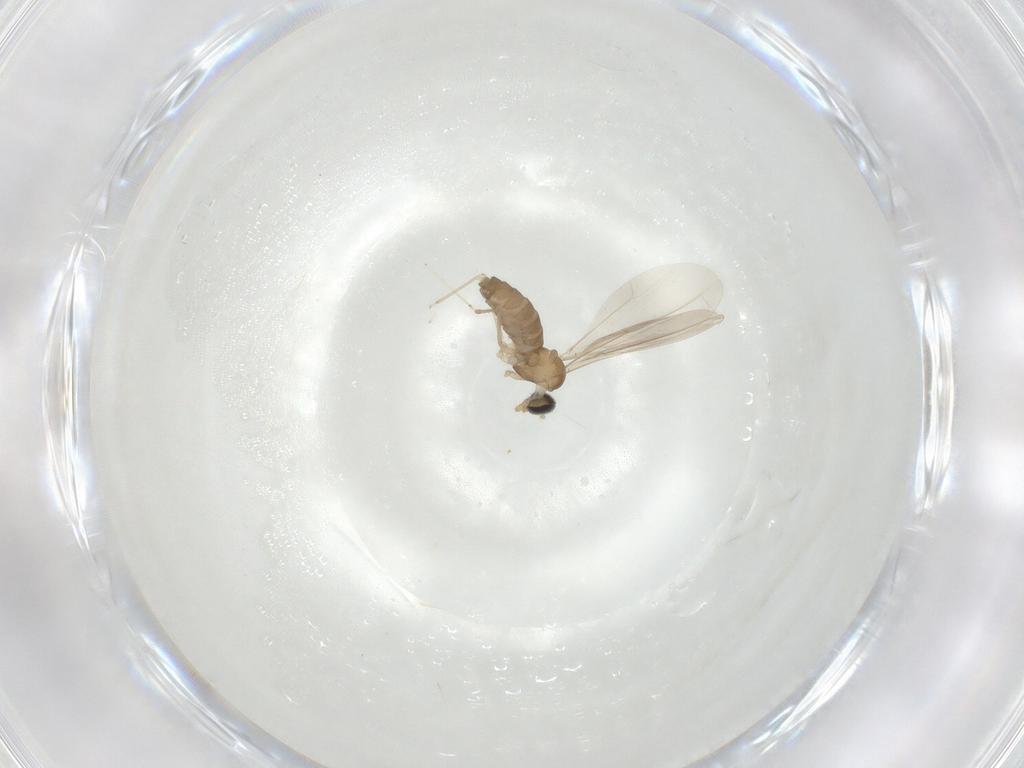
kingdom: Animalia
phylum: Arthropoda
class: Insecta
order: Diptera
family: Cecidomyiidae
